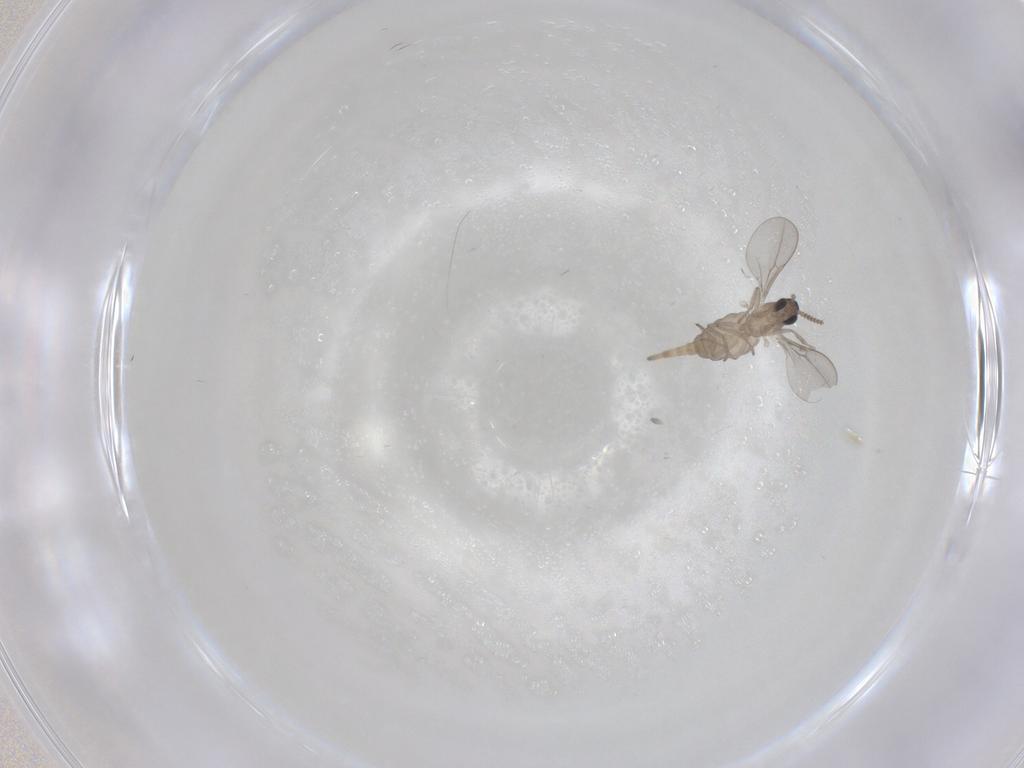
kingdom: Animalia
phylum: Arthropoda
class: Insecta
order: Diptera
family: Cecidomyiidae
